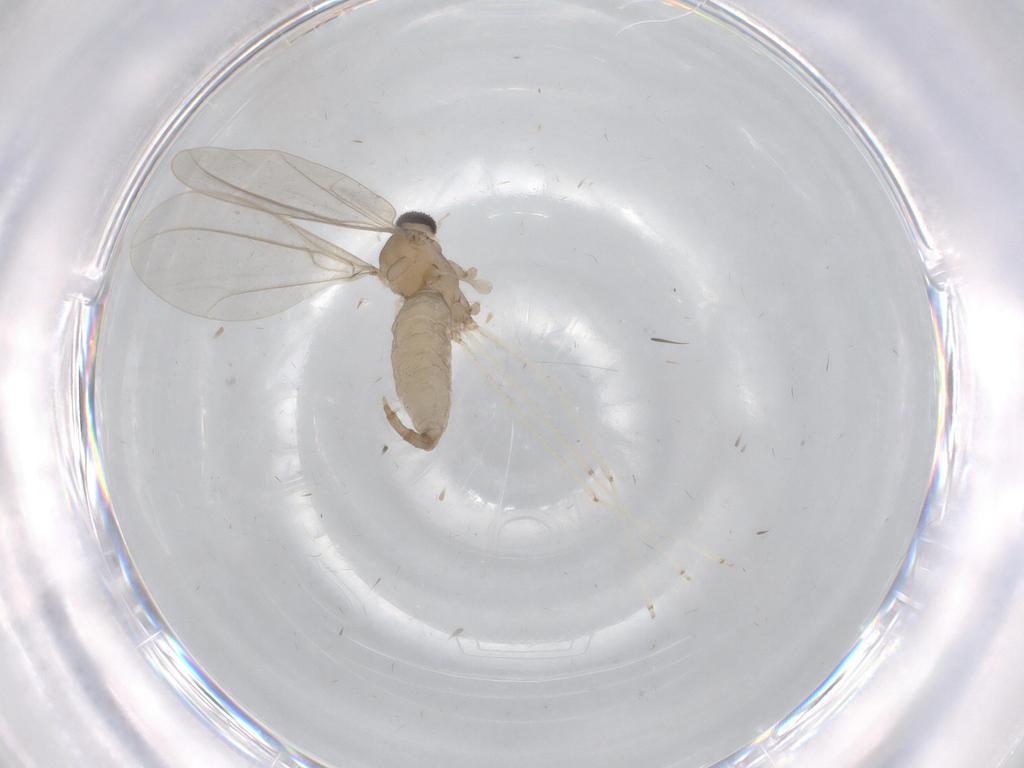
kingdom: Animalia
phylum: Arthropoda
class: Insecta
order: Diptera
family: Cecidomyiidae
